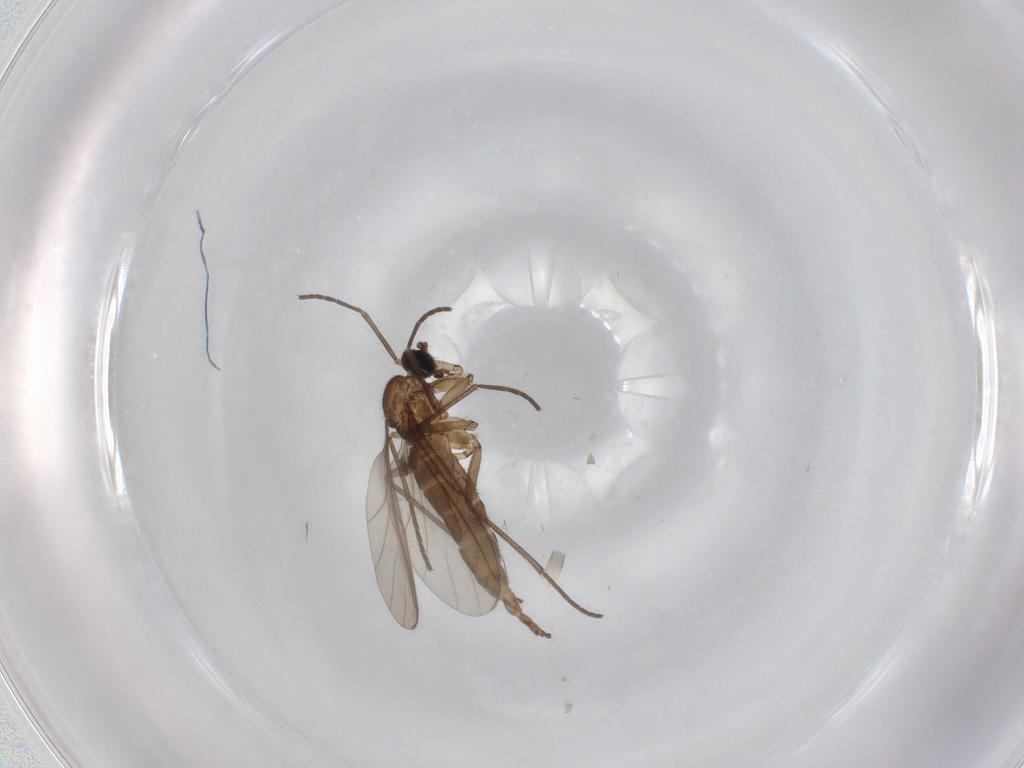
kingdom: Animalia
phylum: Arthropoda
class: Insecta
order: Diptera
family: Sciaridae
